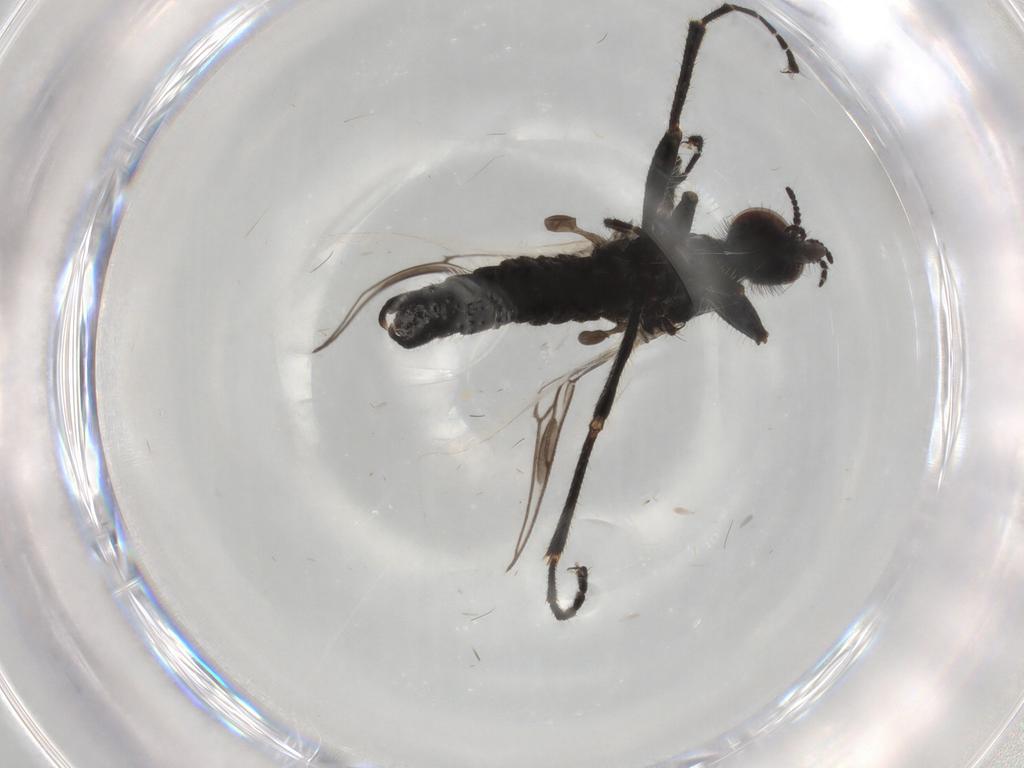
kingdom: Animalia
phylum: Arthropoda
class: Insecta
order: Diptera
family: Bibionidae
